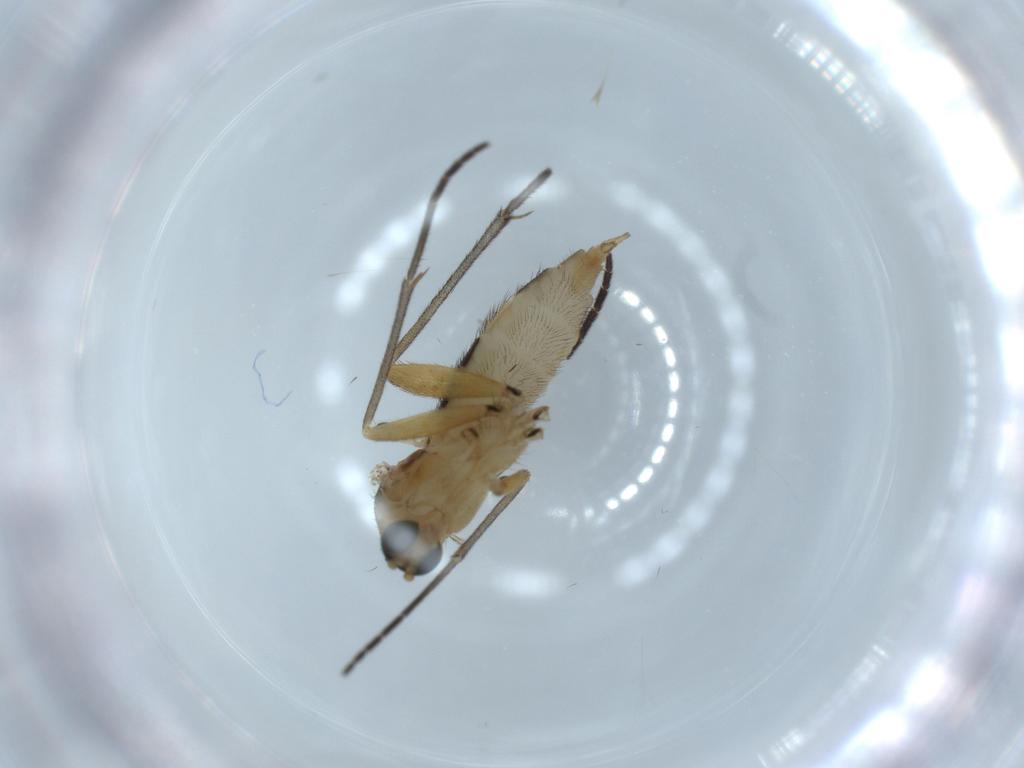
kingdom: Animalia
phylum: Arthropoda
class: Insecta
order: Diptera
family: Sciaridae
